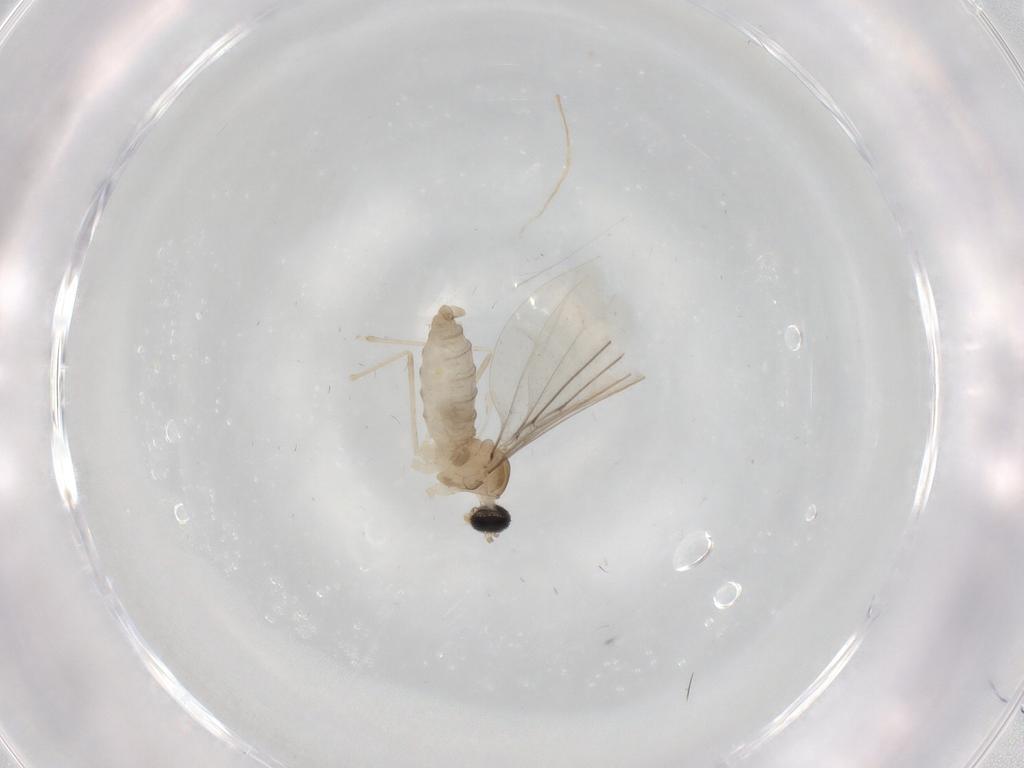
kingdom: Animalia
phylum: Arthropoda
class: Insecta
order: Diptera
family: Cecidomyiidae
